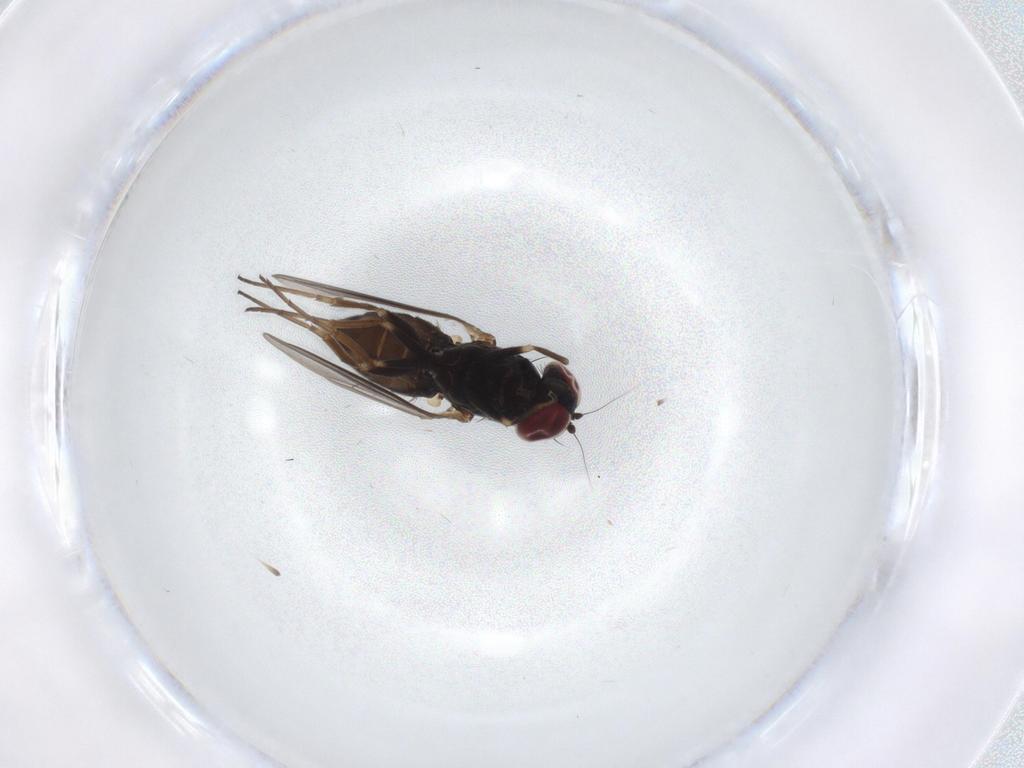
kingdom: Animalia
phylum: Arthropoda
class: Insecta
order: Diptera
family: Dolichopodidae
